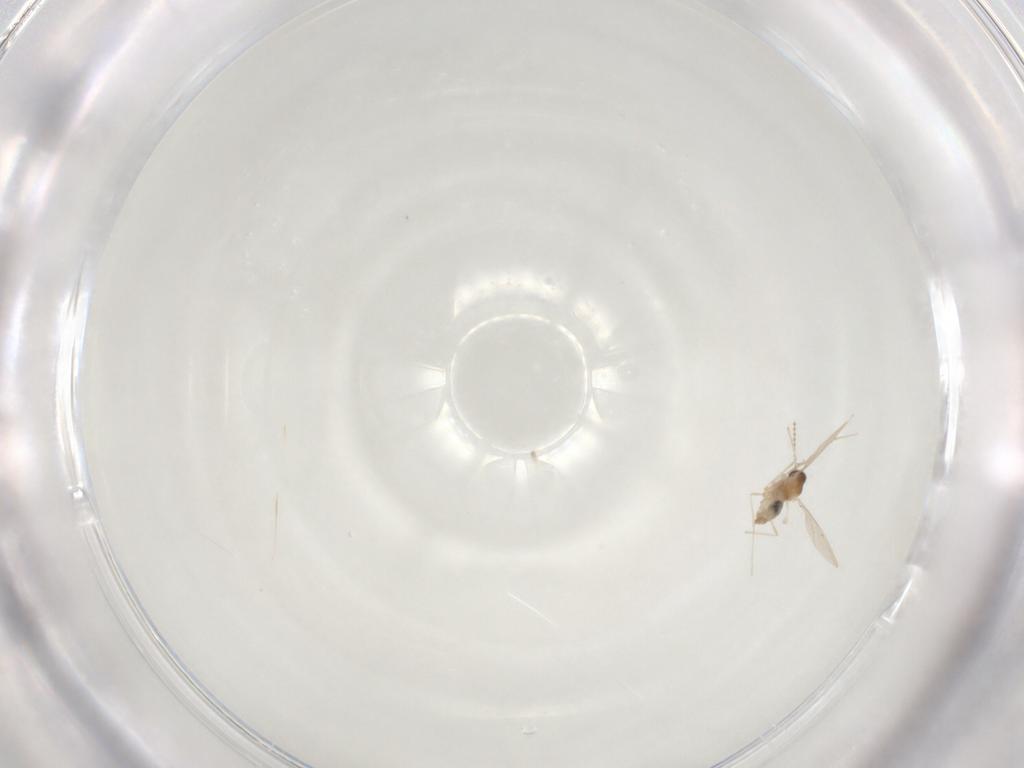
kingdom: Animalia
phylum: Arthropoda
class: Insecta
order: Diptera
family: Cecidomyiidae
